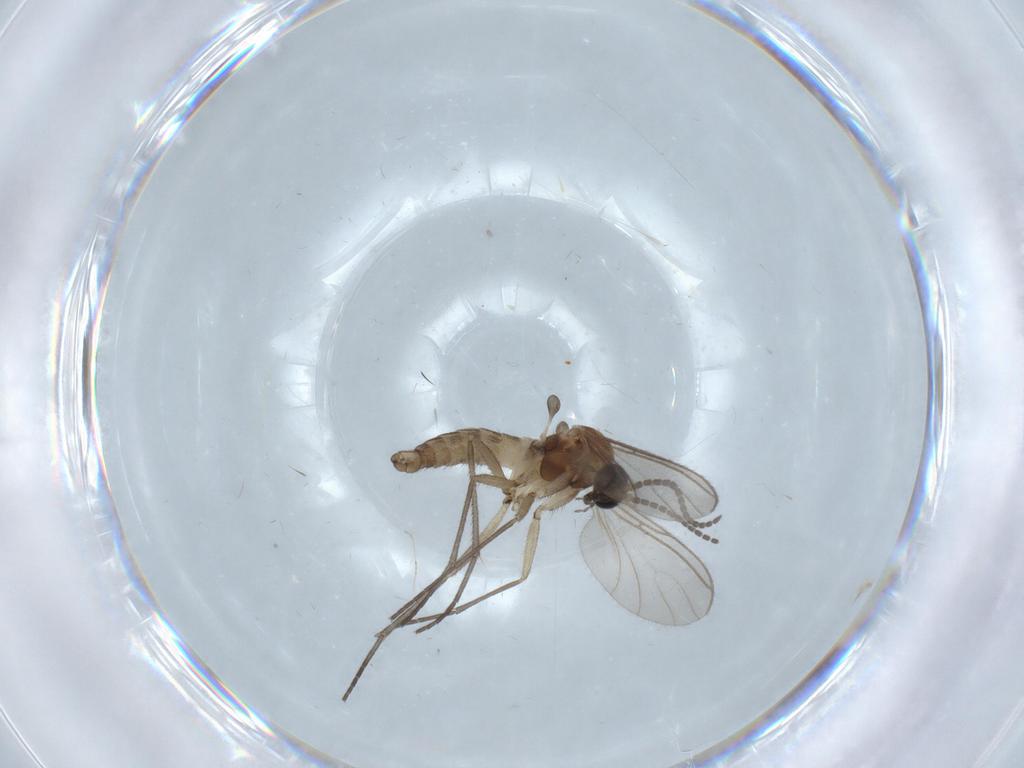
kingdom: Animalia
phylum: Arthropoda
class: Insecta
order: Diptera
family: Sciaridae
